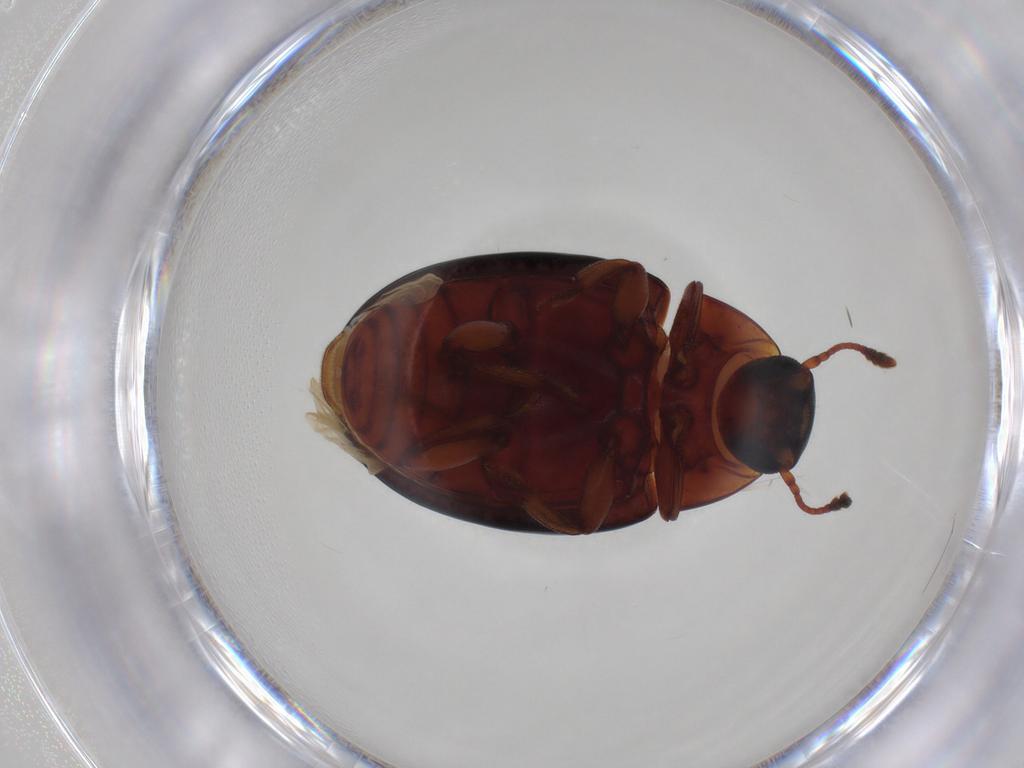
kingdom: Animalia
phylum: Arthropoda
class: Insecta
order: Coleoptera
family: Zopheridae
